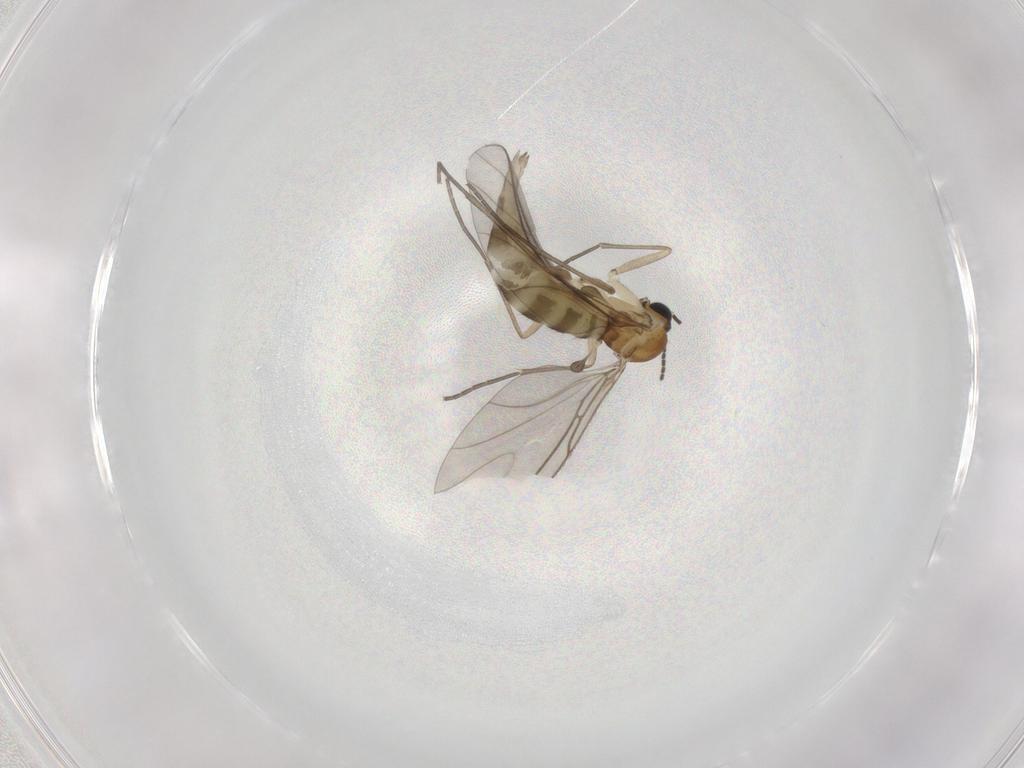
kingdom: Animalia
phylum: Arthropoda
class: Insecta
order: Diptera
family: Sciaridae
